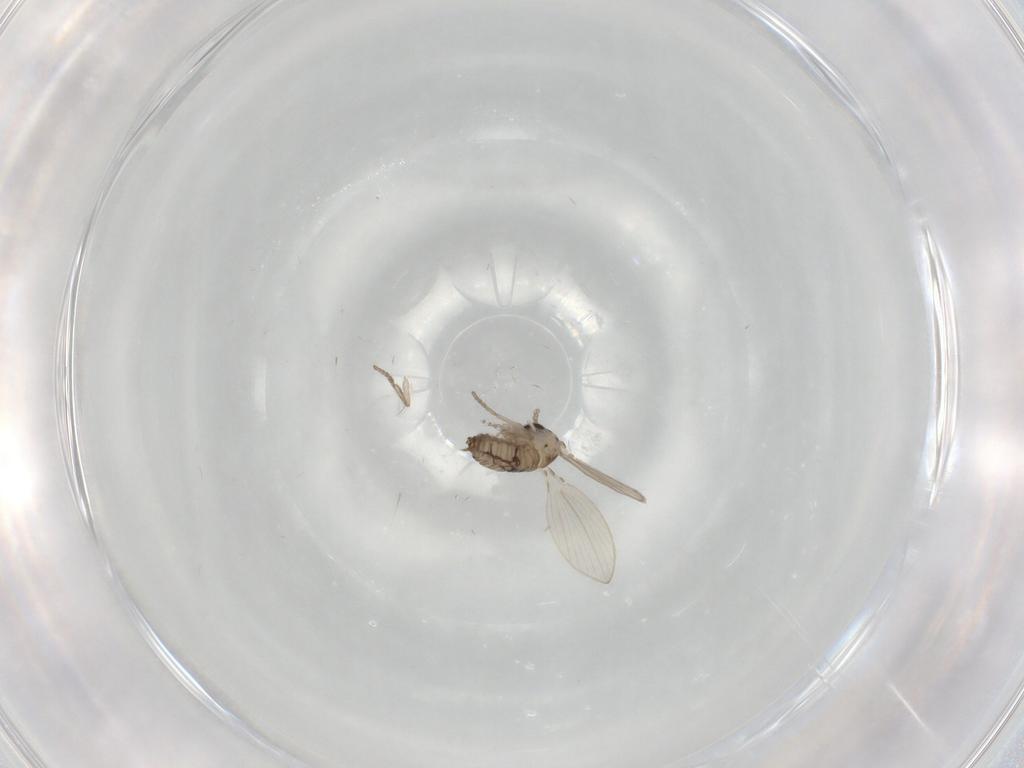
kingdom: Animalia
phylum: Arthropoda
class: Insecta
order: Diptera
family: Psychodidae
